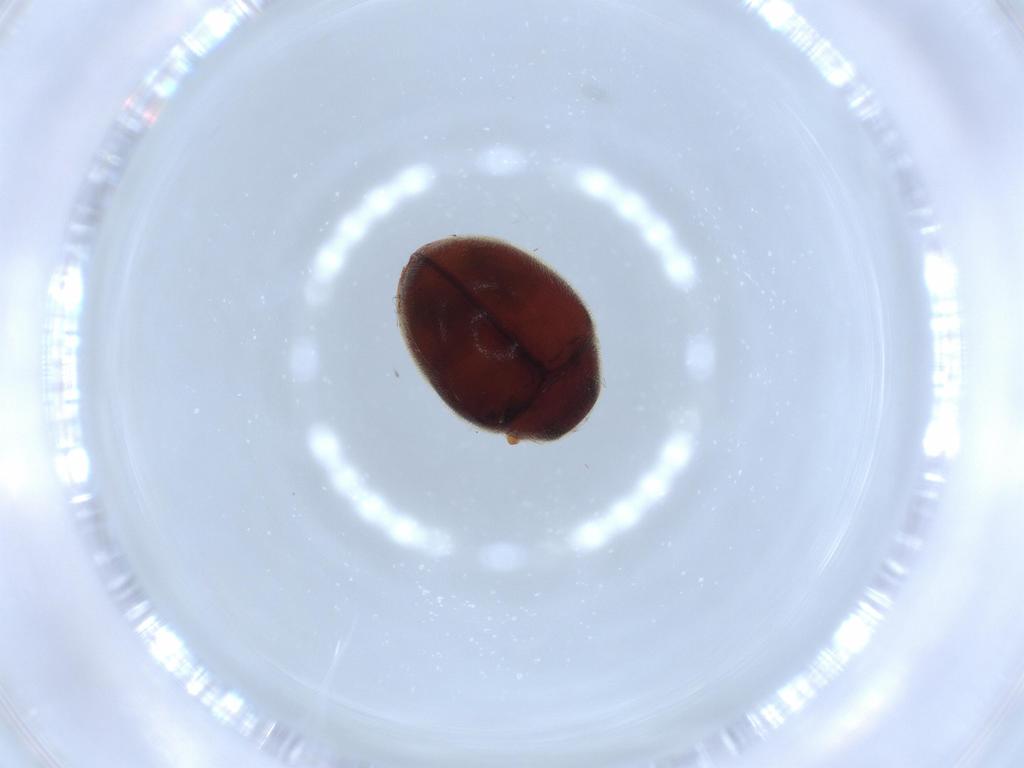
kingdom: Animalia
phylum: Arthropoda
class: Insecta
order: Coleoptera
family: Coccinellidae
